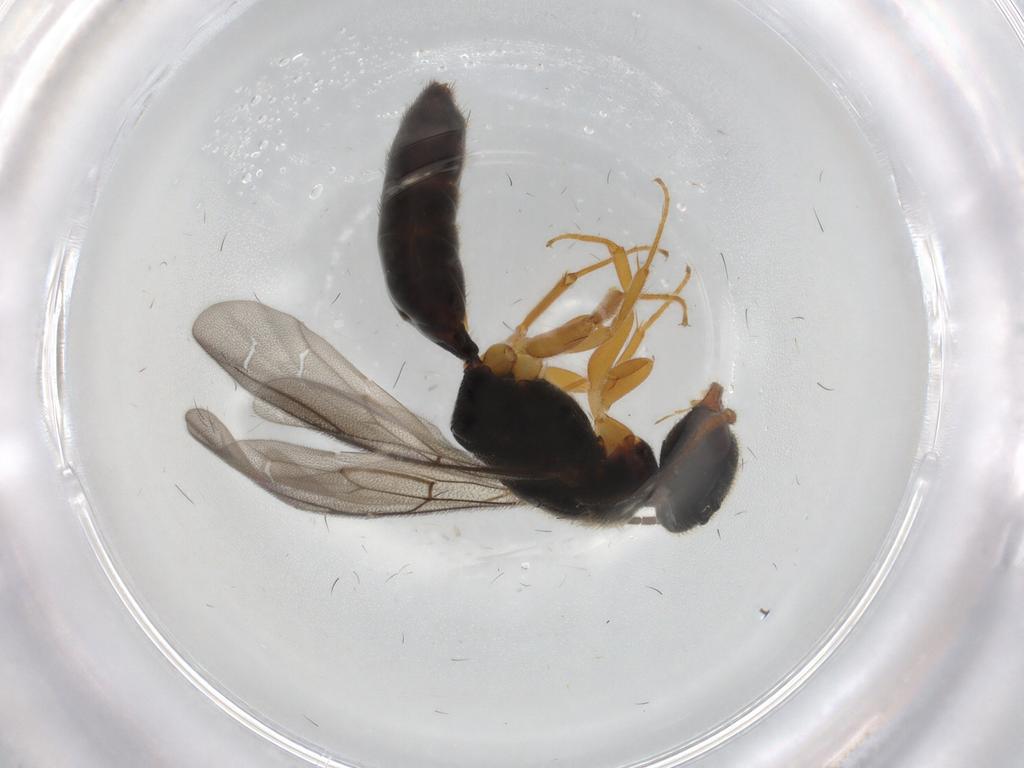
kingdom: Animalia
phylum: Arthropoda
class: Insecta
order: Hymenoptera
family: Bethylidae
